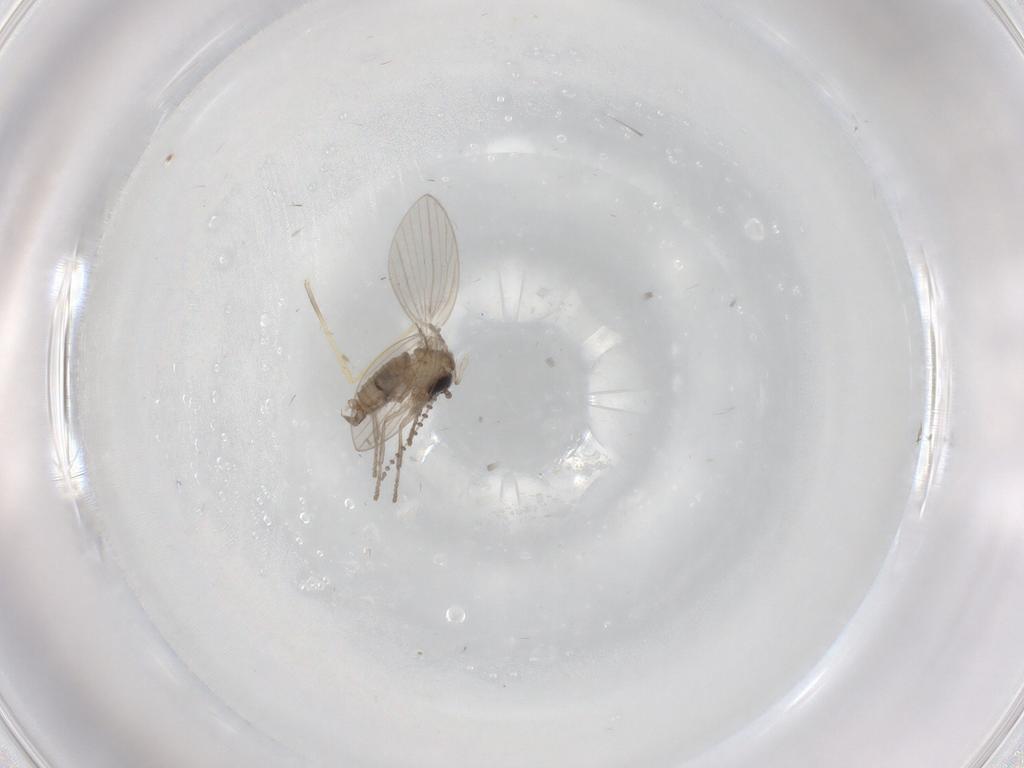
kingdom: Animalia
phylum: Arthropoda
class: Insecta
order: Diptera
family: Psychodidae
